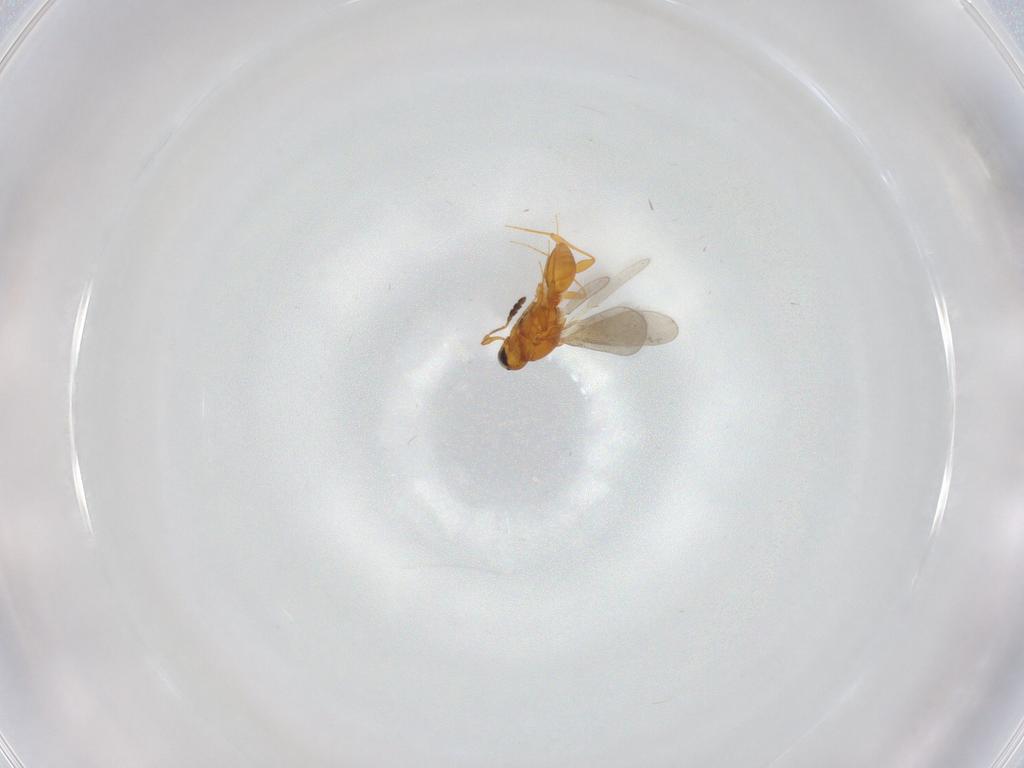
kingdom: Animalia
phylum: Arthropoda
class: Insecta
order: Hymenoptera
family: Platygastridae
